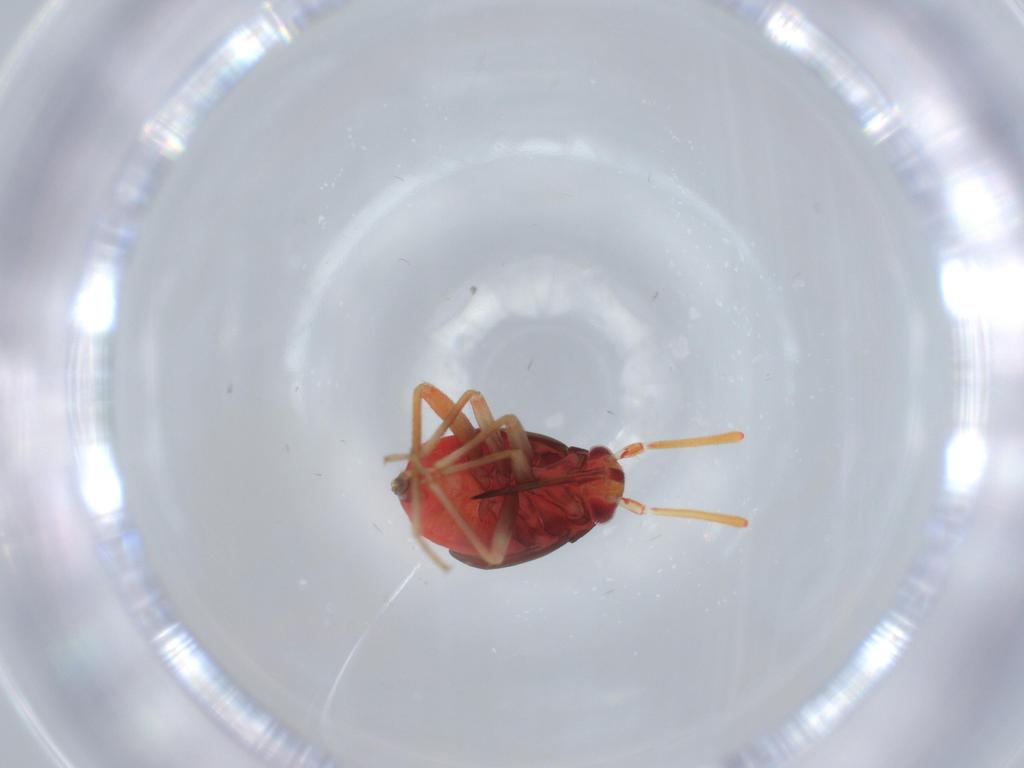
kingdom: Animalia
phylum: Arthropoda
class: Insecta
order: Hemiptera
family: Miridae
